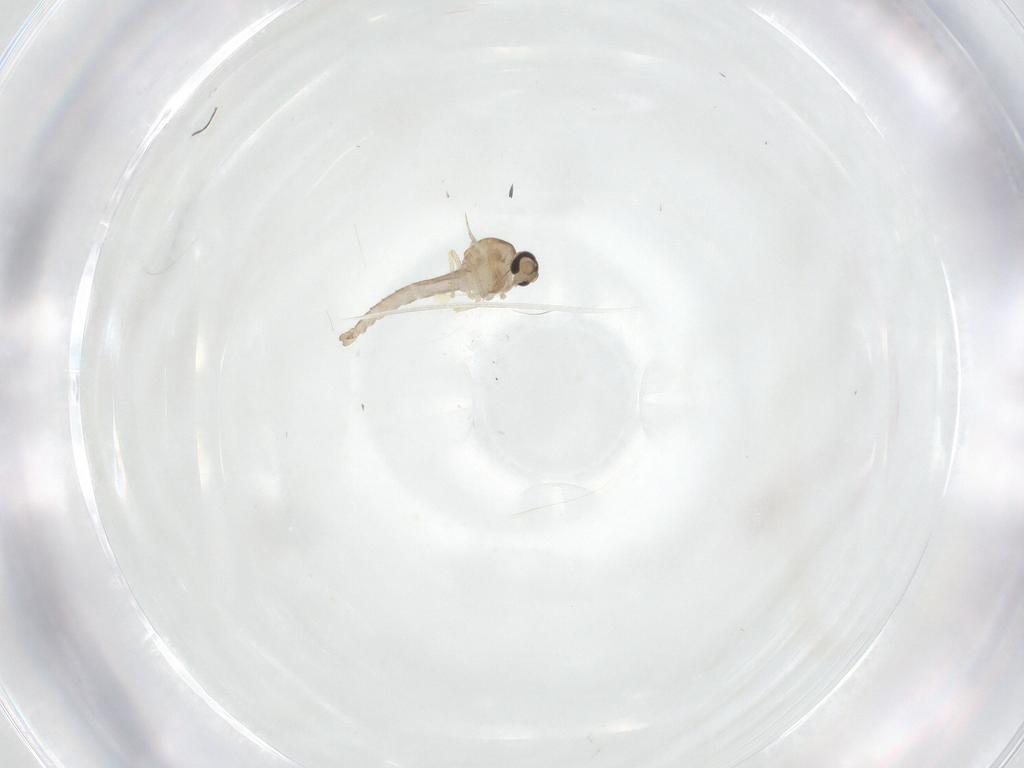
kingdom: Animalia
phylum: Arthropoda
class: Insecta
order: Diptera
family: Ceratopogonidae
